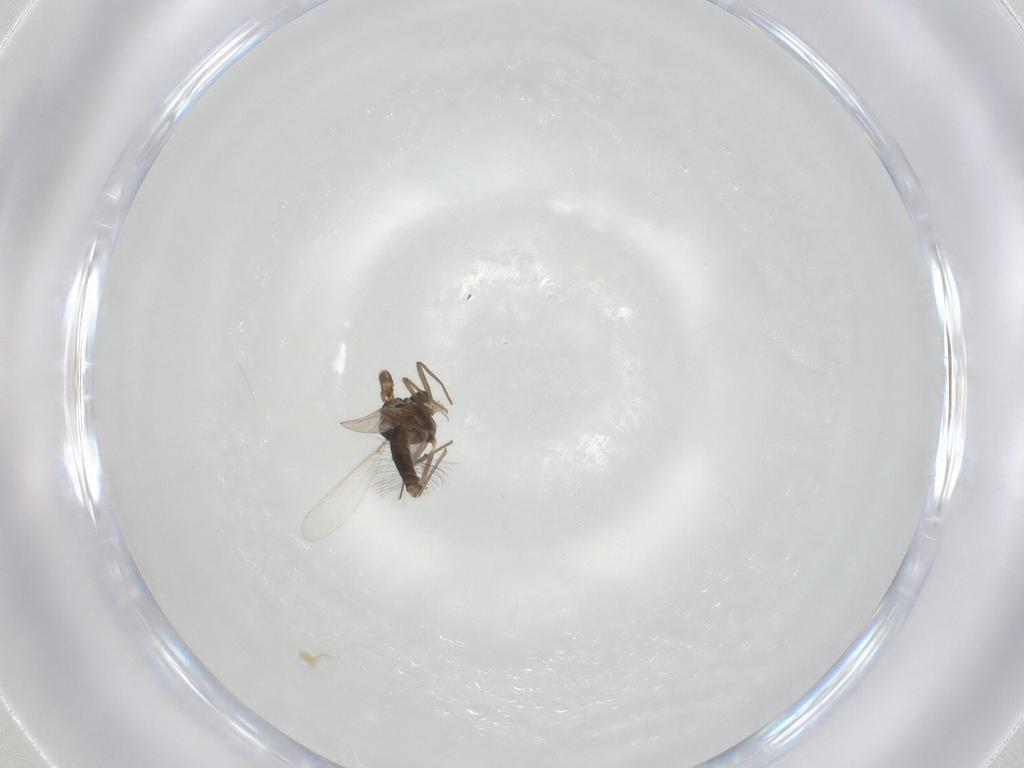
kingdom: Animalia
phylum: Arthropoda
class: Insecta
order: Diptera
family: Chironomidae
